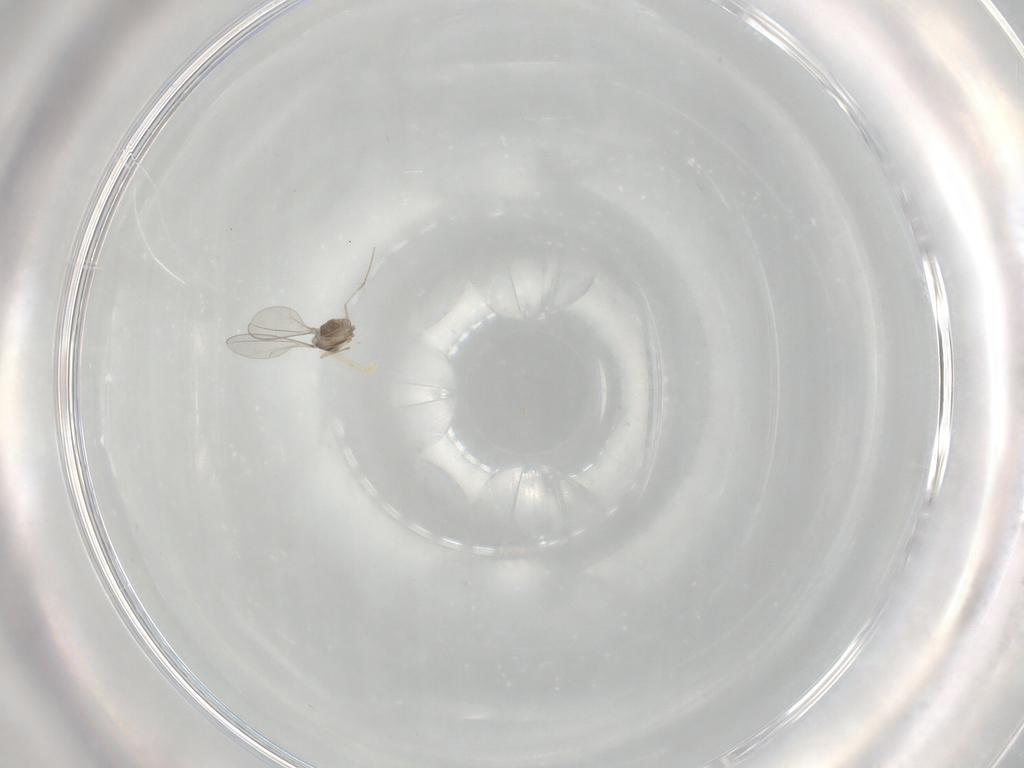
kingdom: Animalia
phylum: Arthropoda
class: Insecta
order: Diptera
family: Cecidomyiidae
